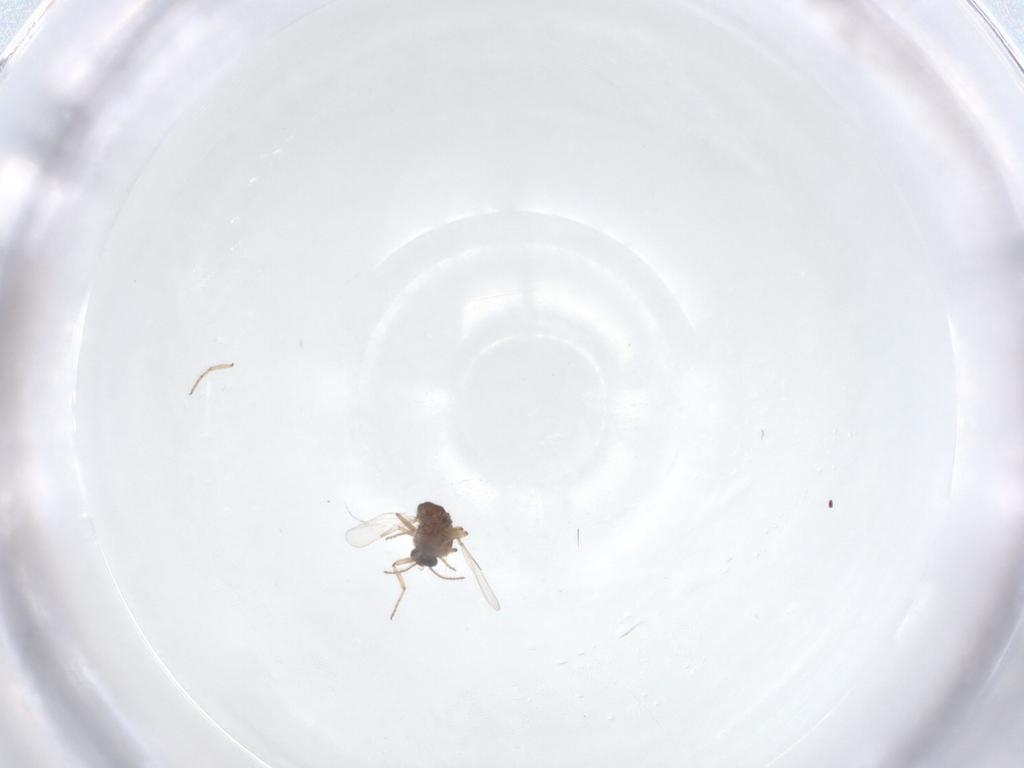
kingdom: Animalia
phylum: Arthropoda
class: Insecta
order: Diptera
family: Ceratopogonidae
